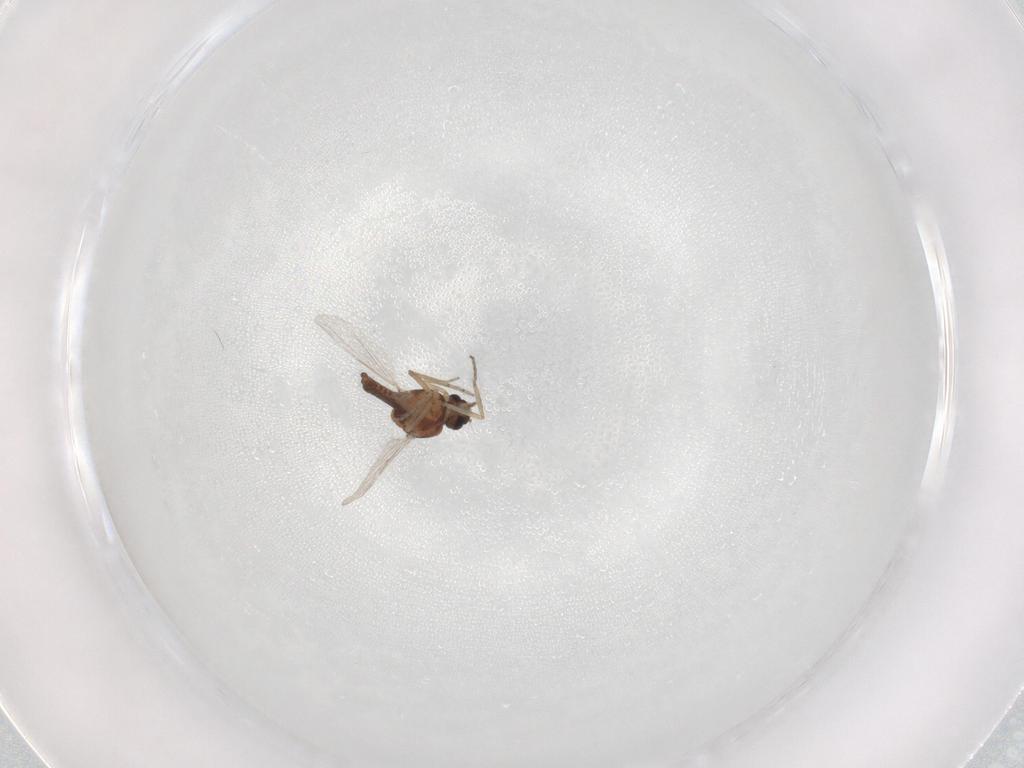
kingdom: Animalia
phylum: Arthropoda
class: Insecta
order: Diptera
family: Ceratopogonidae
